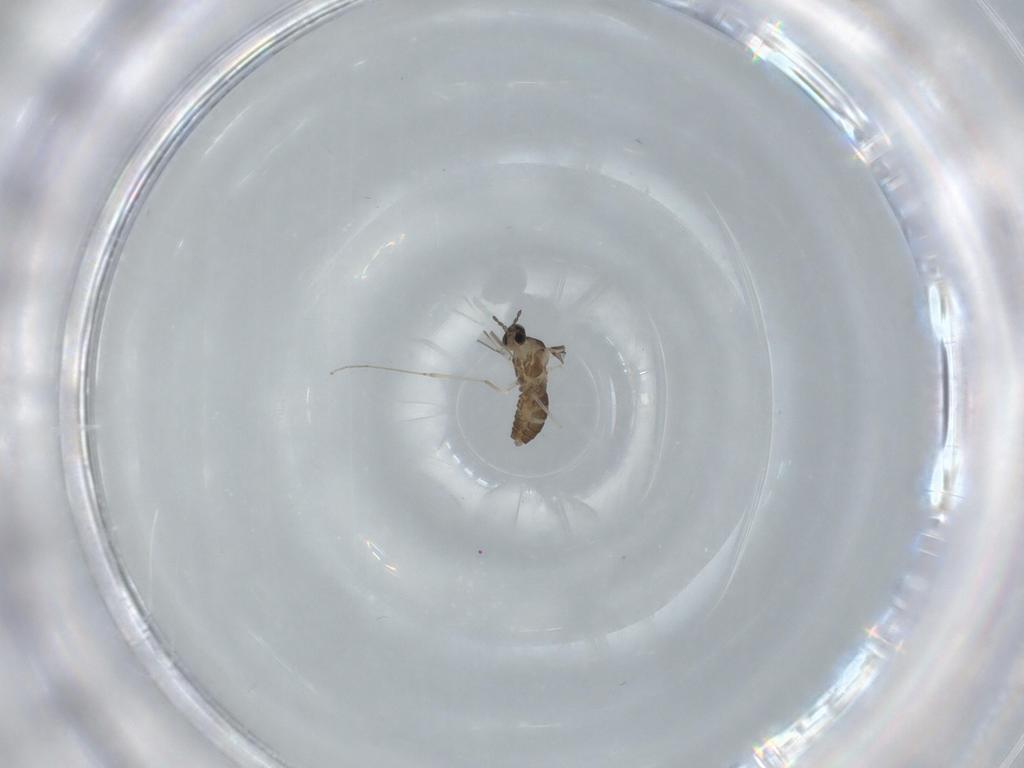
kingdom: Animalia
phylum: Arthropoda
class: Insecta
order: Diptera
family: Cecidomyiidae
